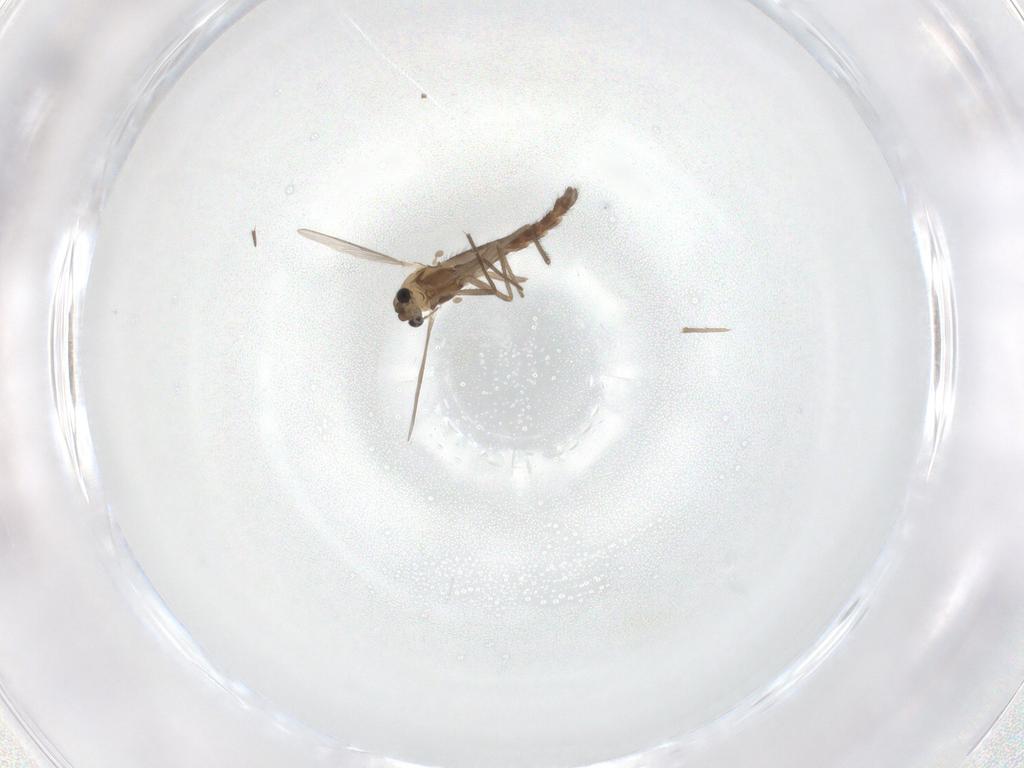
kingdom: Animalia
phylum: Arthropoda
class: Insecta
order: Diptera
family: Chironomidae
